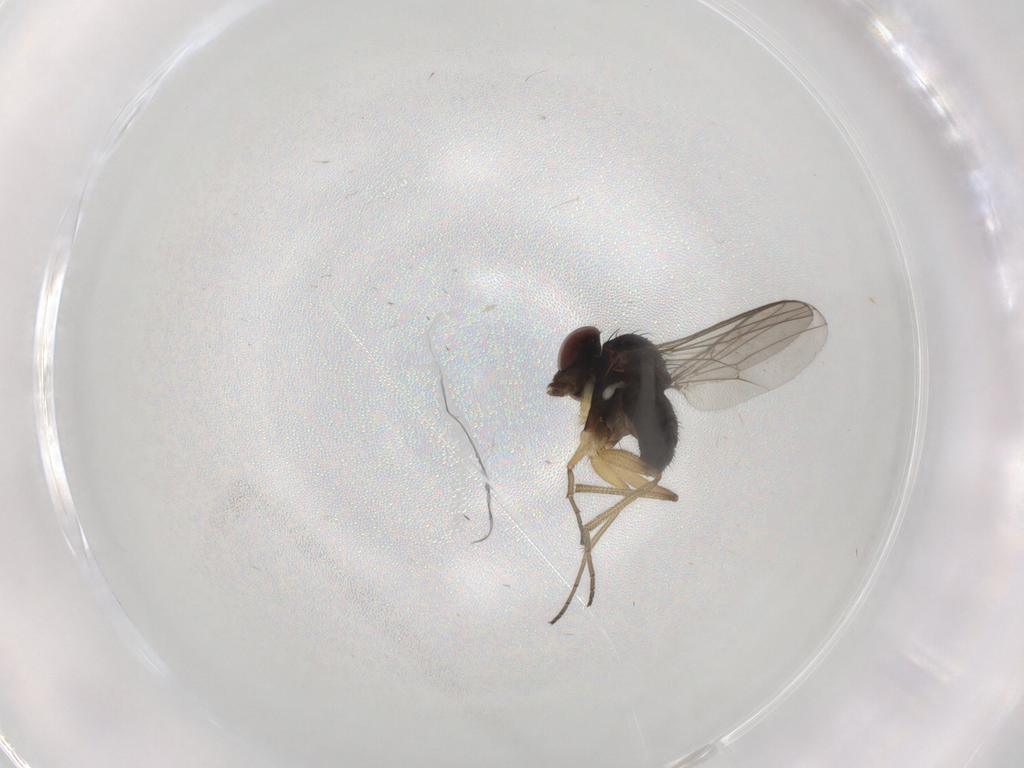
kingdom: Animalia
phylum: Arthropoda
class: Insecta
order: Diptera
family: Dolichopodidae
